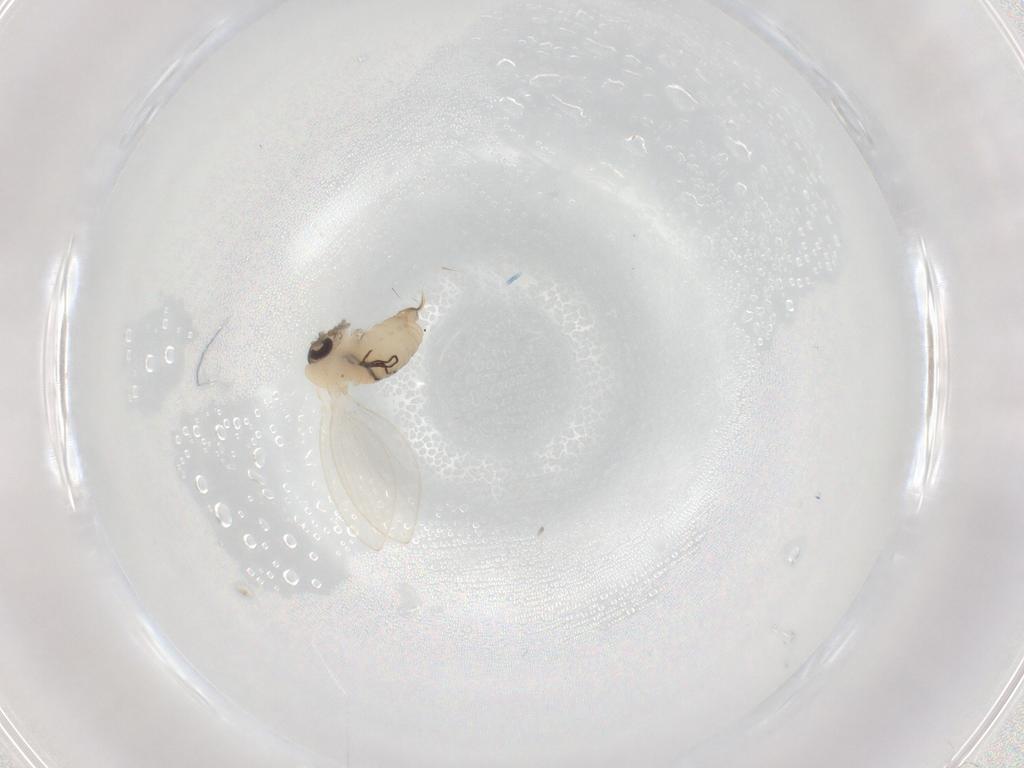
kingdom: Animalia
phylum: Arthropoda
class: Insecta
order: Diptera
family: Psychodidae
